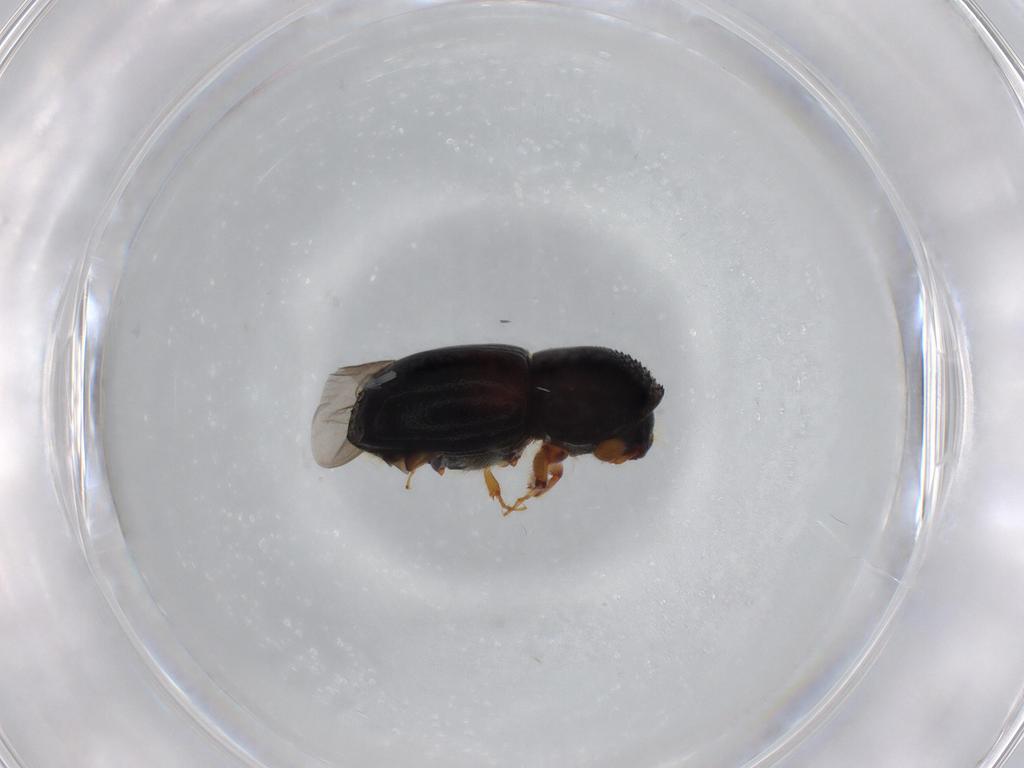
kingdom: Animalia
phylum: Arthropoda
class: Insecta
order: Coleoptera
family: Curculionidae
